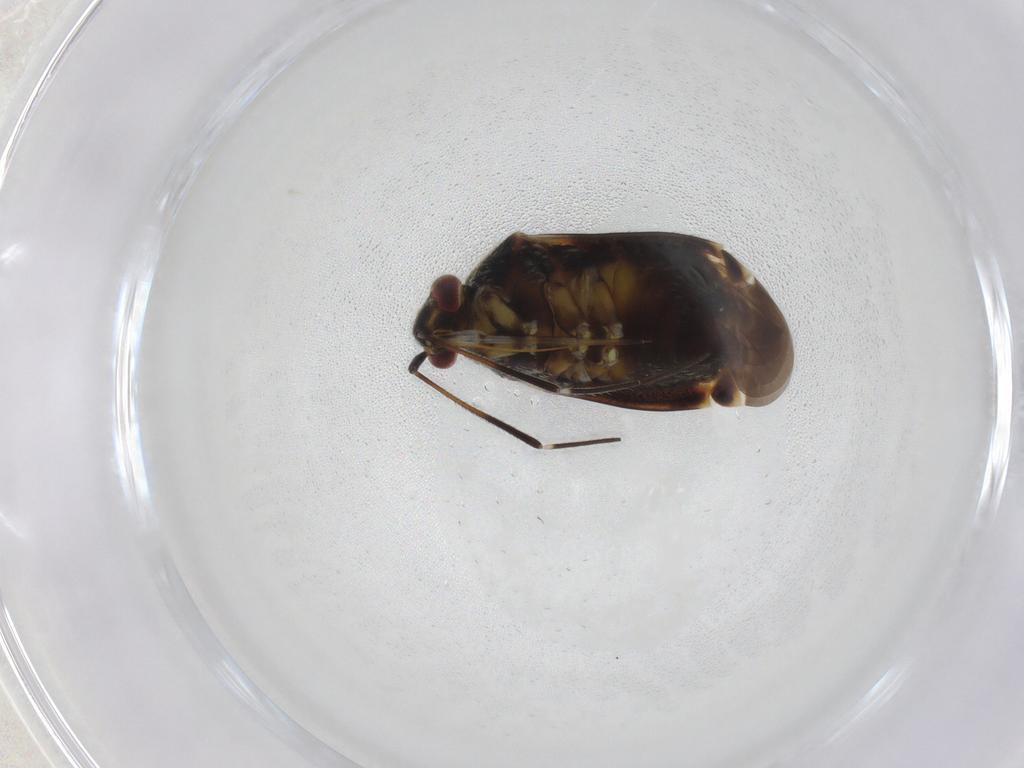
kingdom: Animalia
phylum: Arthropoda
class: Insecta
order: Hemiptera
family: Miridae
